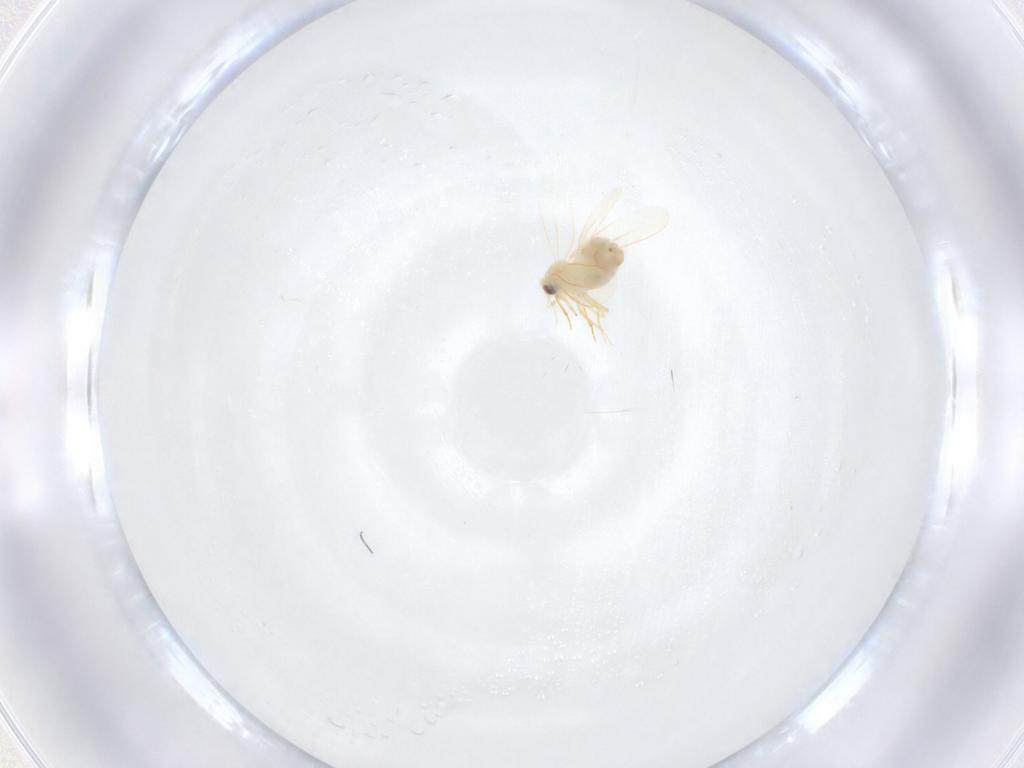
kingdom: Animalia
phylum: Arthropoda
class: Insecta
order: Hemiptera
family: Aleyrodidae
